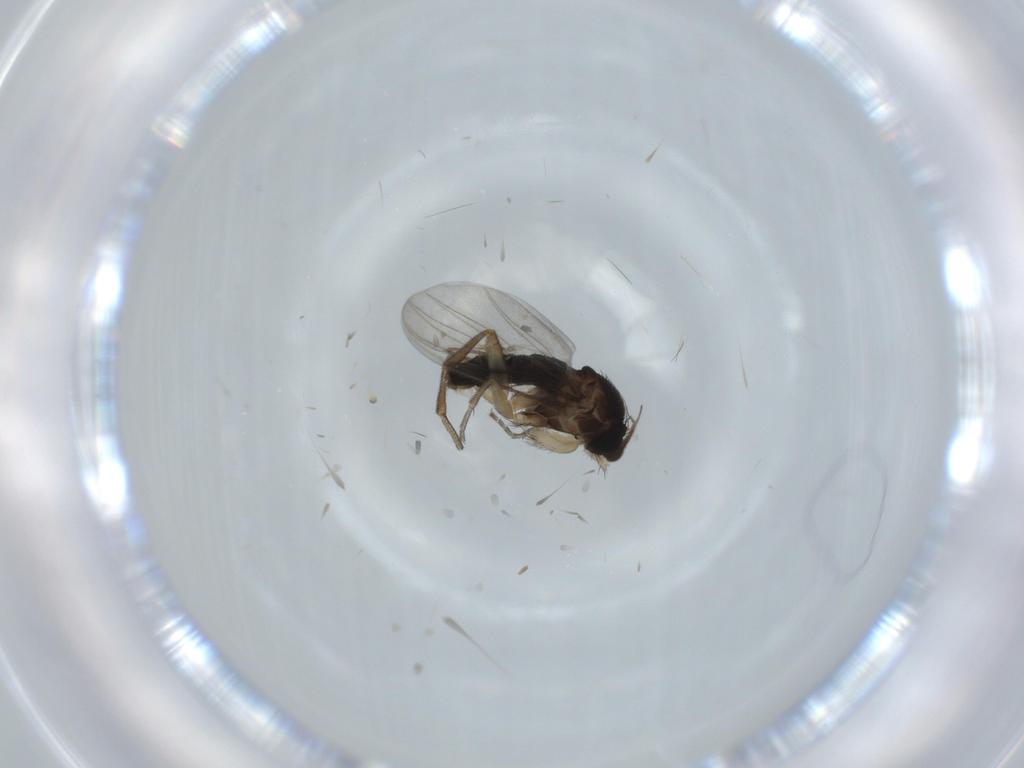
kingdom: Animalia
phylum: Arthropoda
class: Insecta
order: Diptera
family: Phoridae
